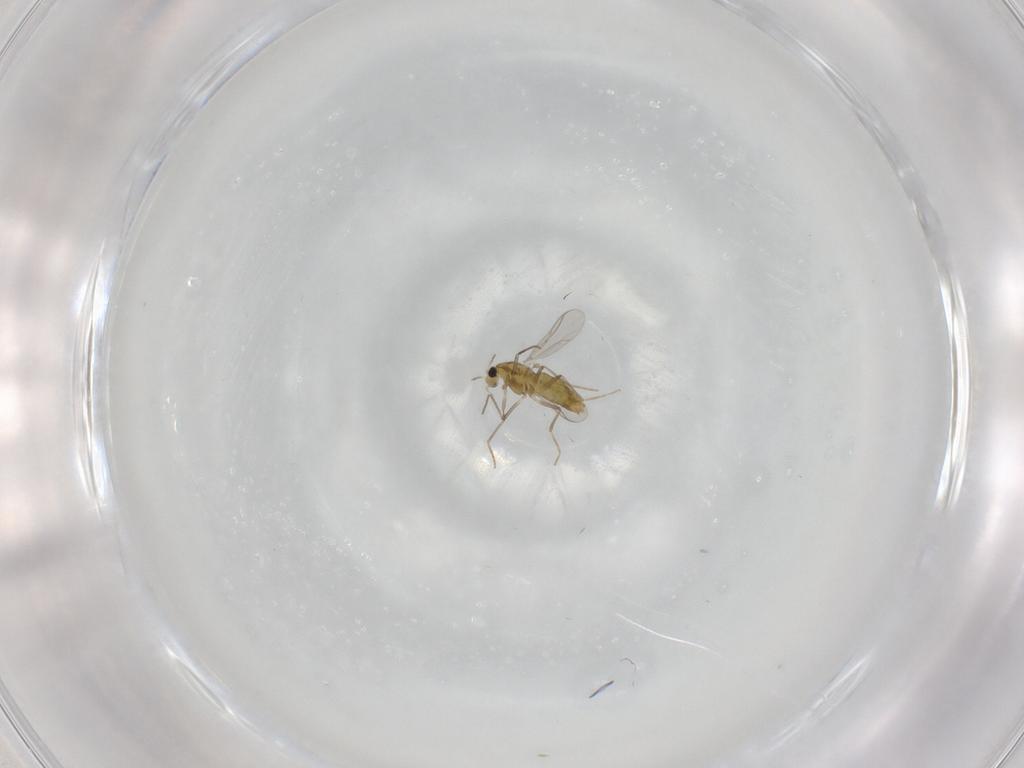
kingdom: Animalia
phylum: Arthropoda
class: Insecta
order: Diptera
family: Chironomidae
